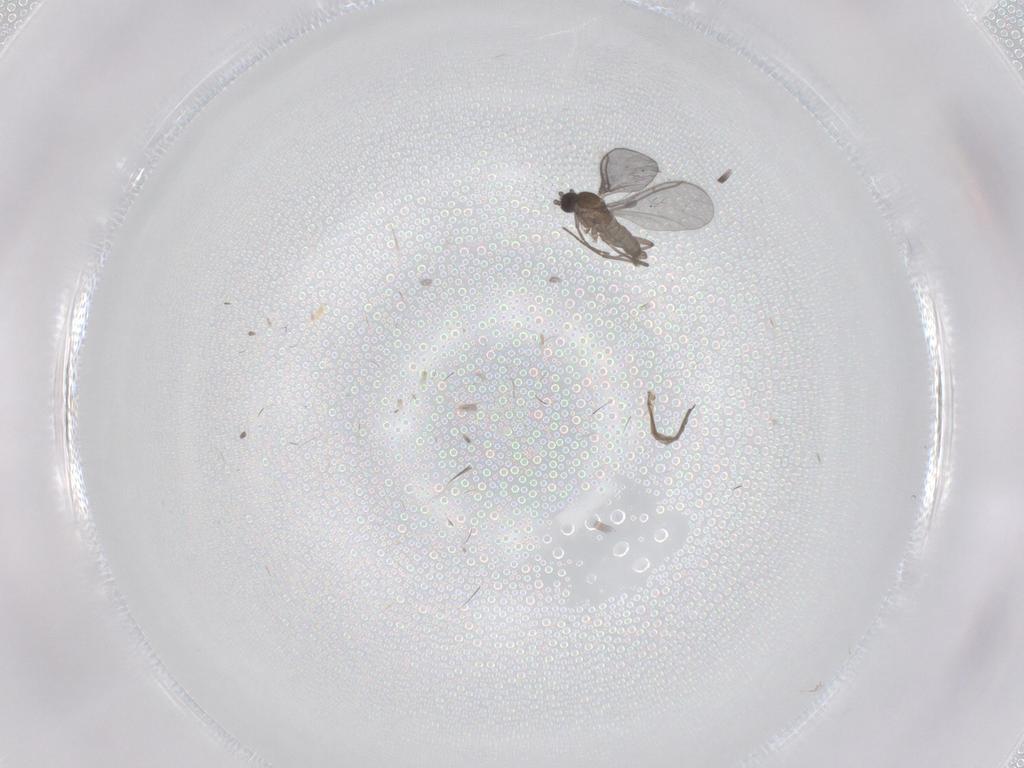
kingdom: Animalia
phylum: Arthropoda
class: Insecta
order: Diptera
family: Sciaridae
